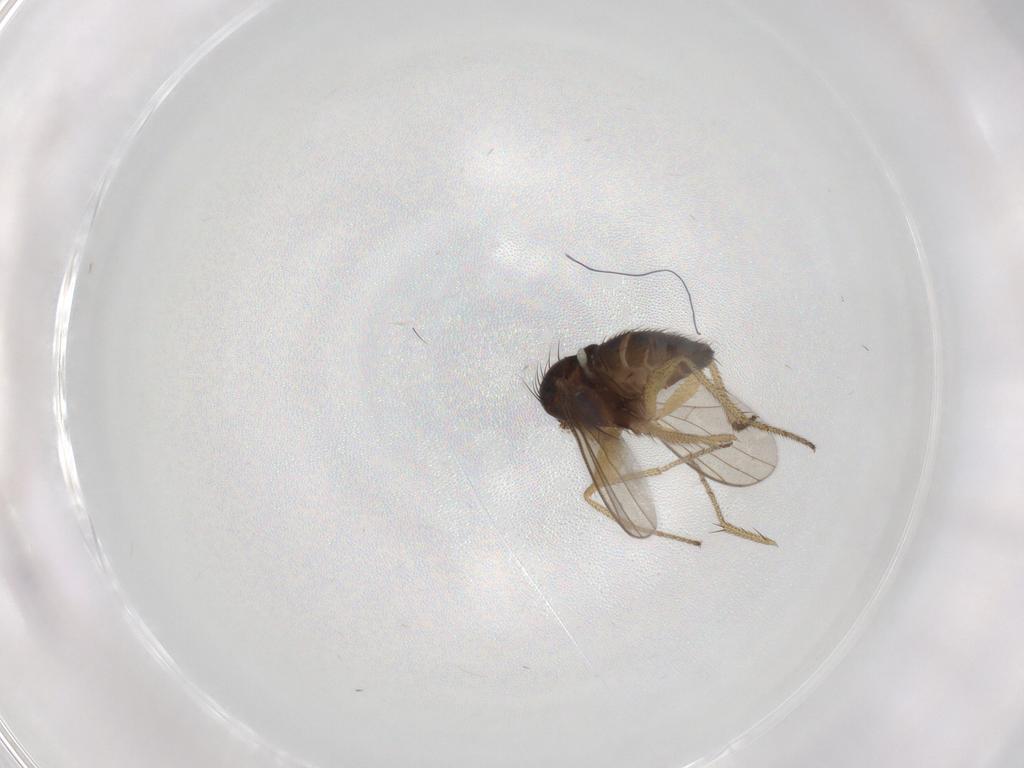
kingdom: Animalia
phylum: Arthropoda
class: Insecta
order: Diptera
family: Dolichopodidae
